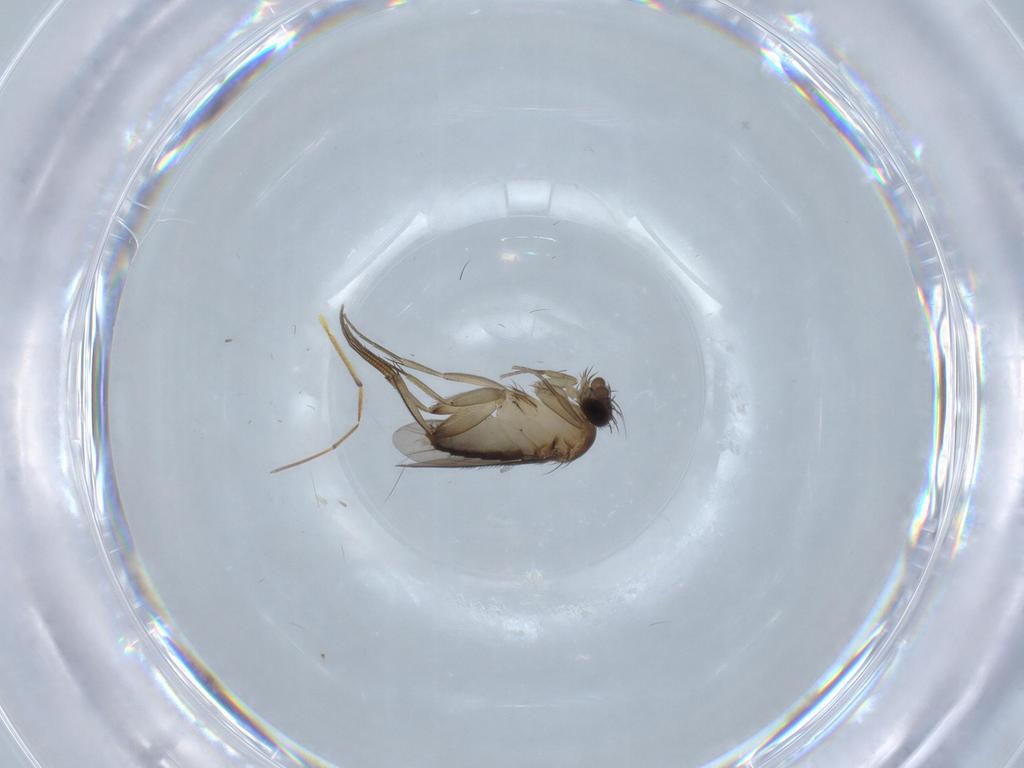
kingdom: Animalia
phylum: Arthropoda
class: Insecta
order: Diptera
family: Phoridae
